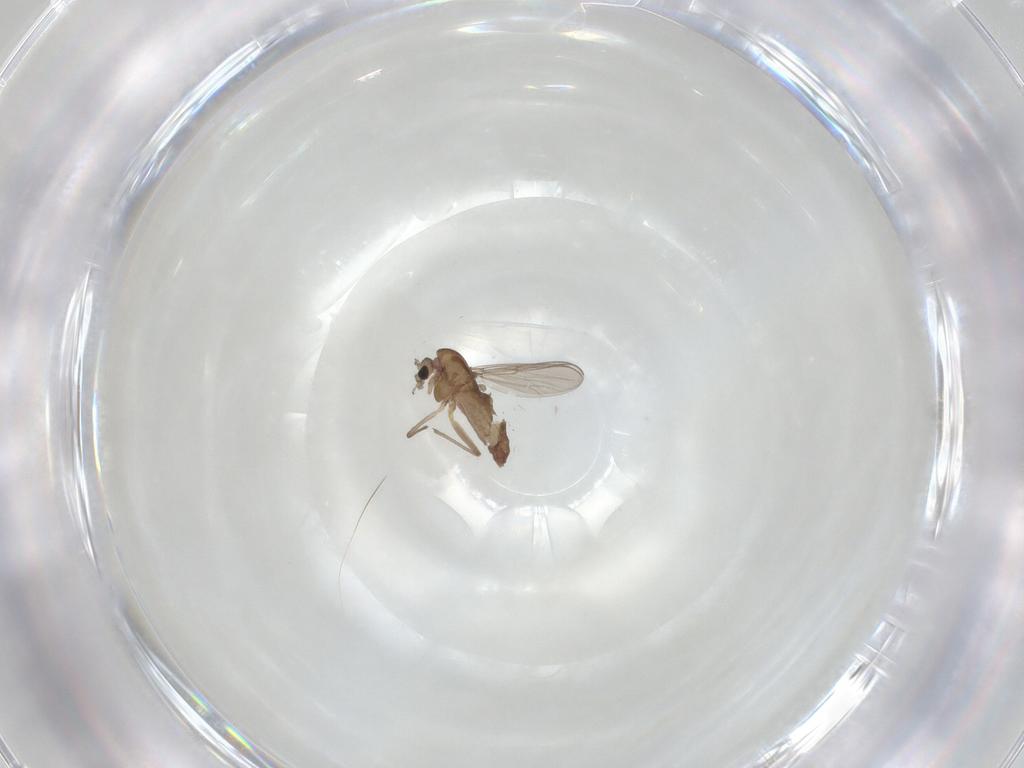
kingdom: Animalia
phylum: Arthropoda
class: Insecta
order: Diptera
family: Chironomidae
